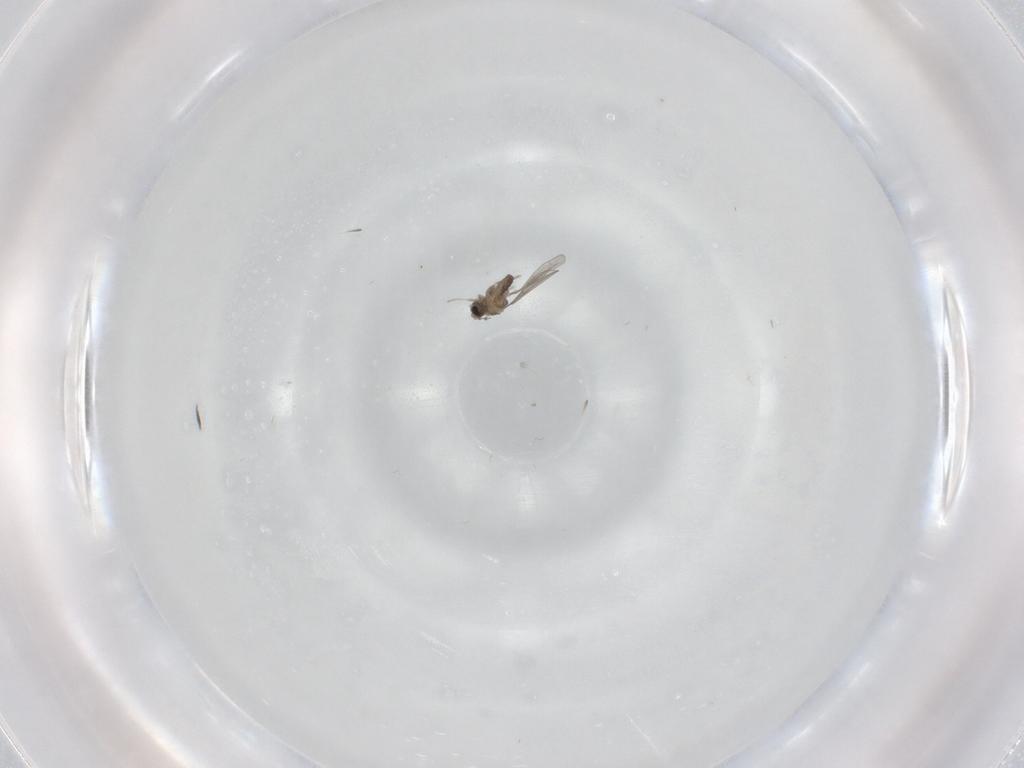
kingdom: Animalia
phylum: Arthropoda
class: Insecta
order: Diptera
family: Cecidomyiidae
